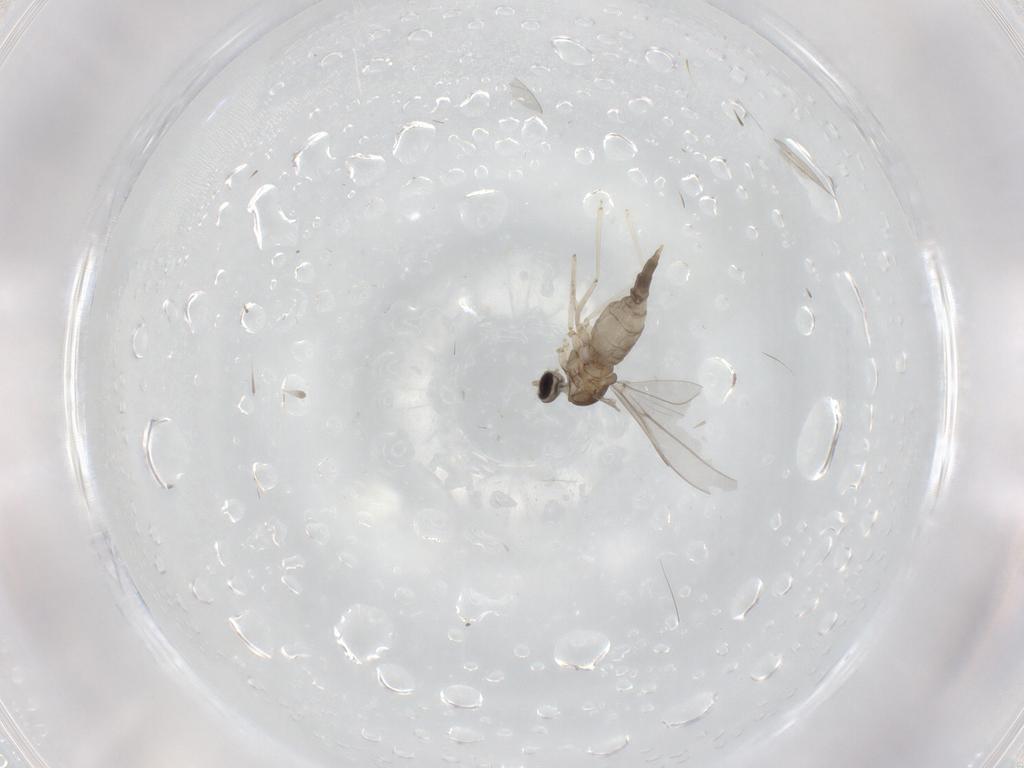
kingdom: Animalia
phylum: Arthropoda
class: Insecta
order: Diptera
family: Cecidomyiidae
